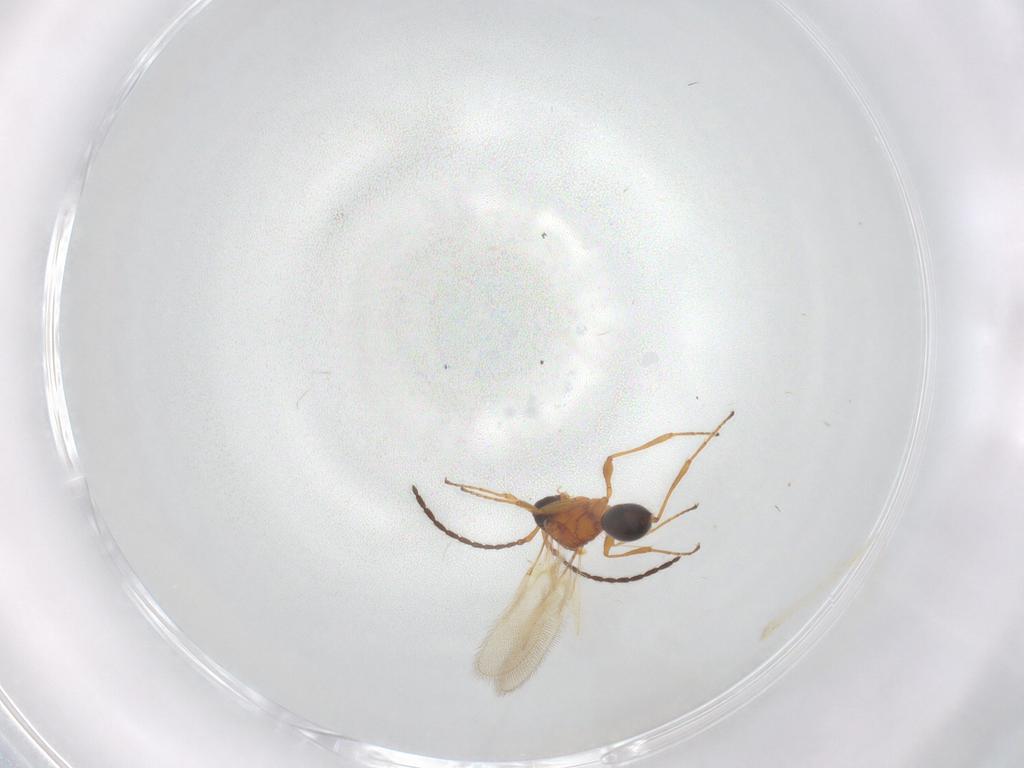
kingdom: Animalia
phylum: Arthropoda
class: Insecta
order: Hymenoptera
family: Diapriidae
